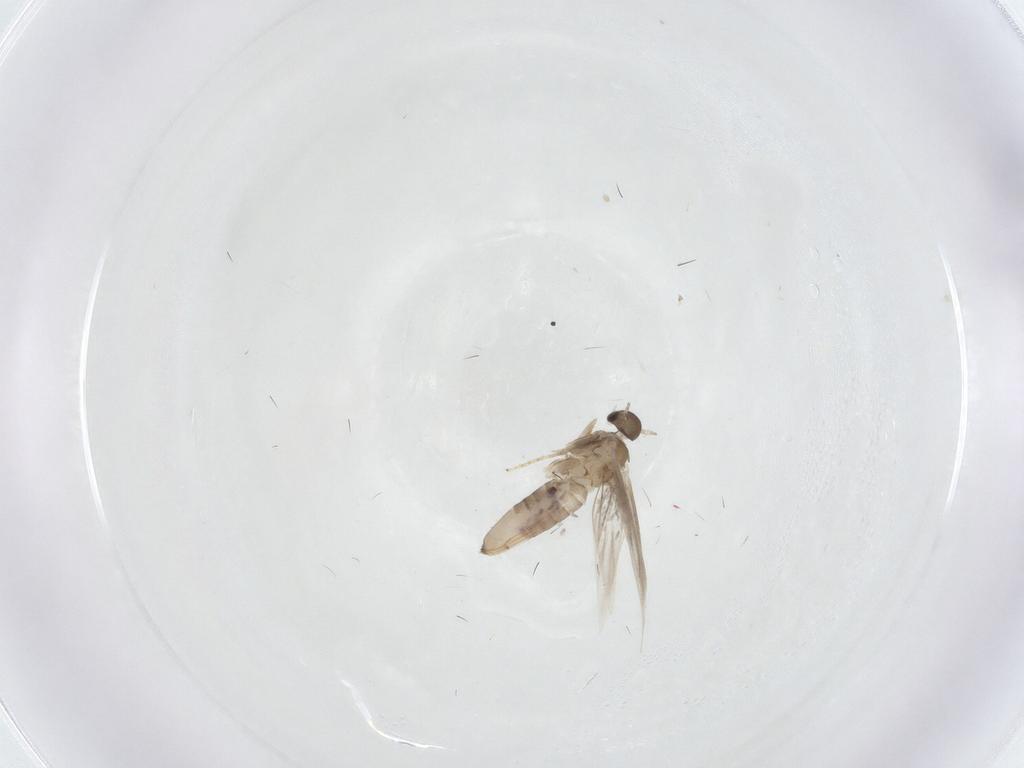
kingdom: Animalia
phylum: Arthropoda
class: Insecta
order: Lepidoptera
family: Heliozelidae
